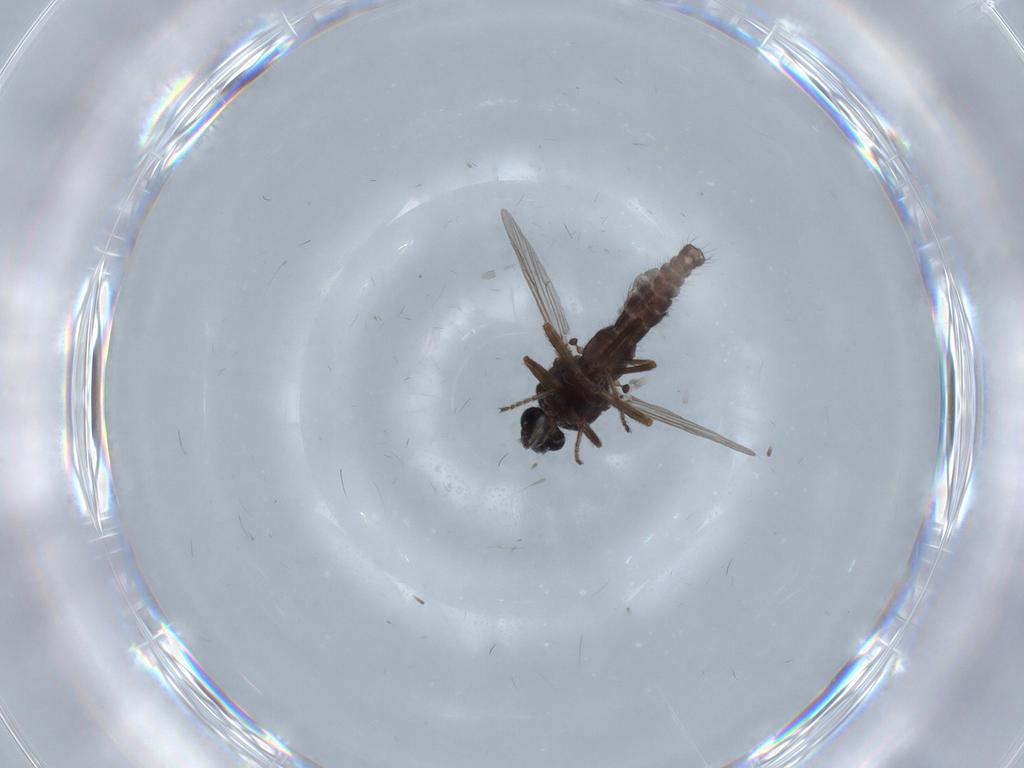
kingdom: Animalia
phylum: Arthropoda
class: Insecta
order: Diptera
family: Ceratopogonidae
